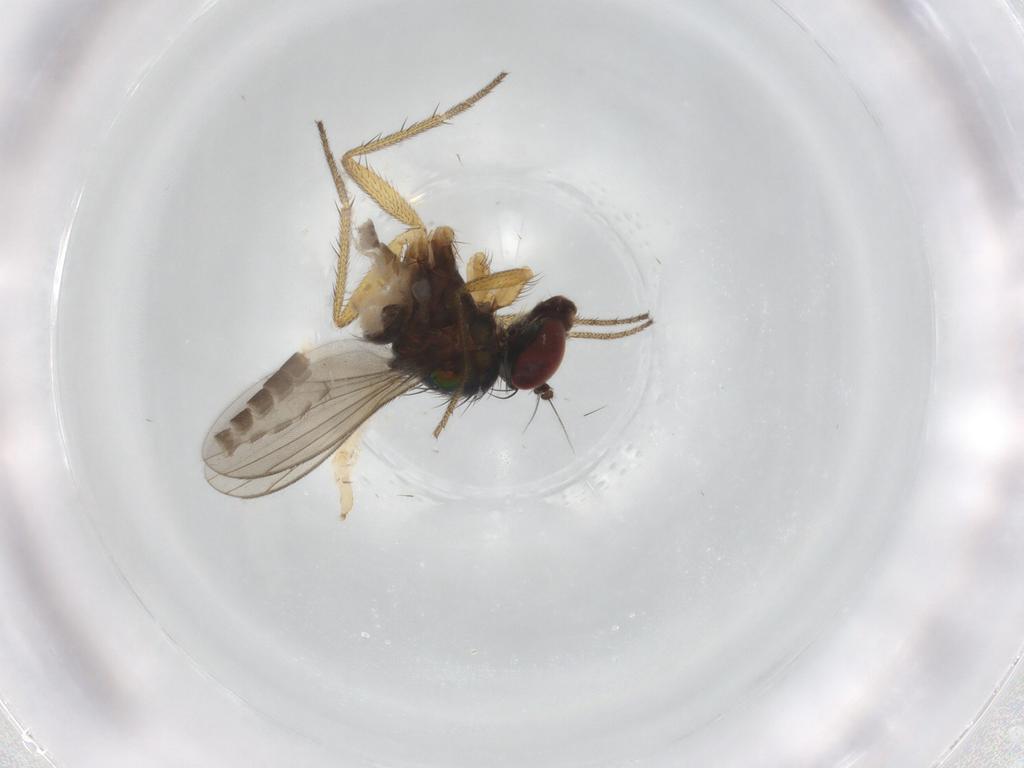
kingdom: Animalia
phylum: Arthropoda
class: Insecta
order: Diptera
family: Chironomidae
